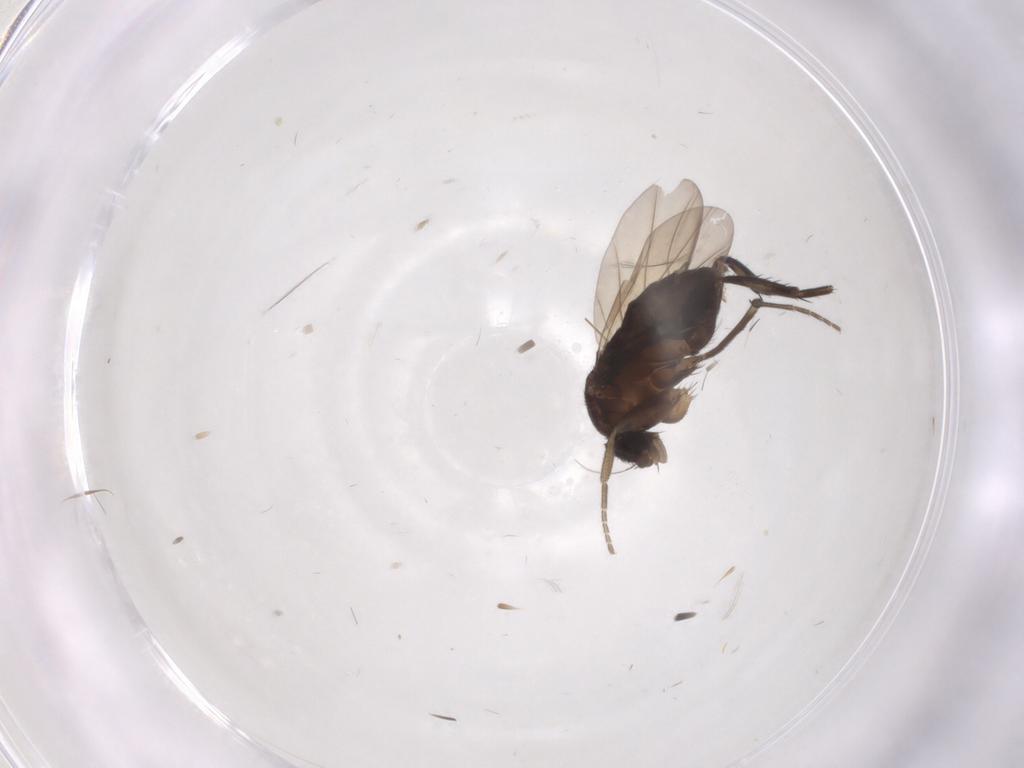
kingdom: Animalia
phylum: Arthropoda
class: Insecta
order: Diptera
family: Phoridae
